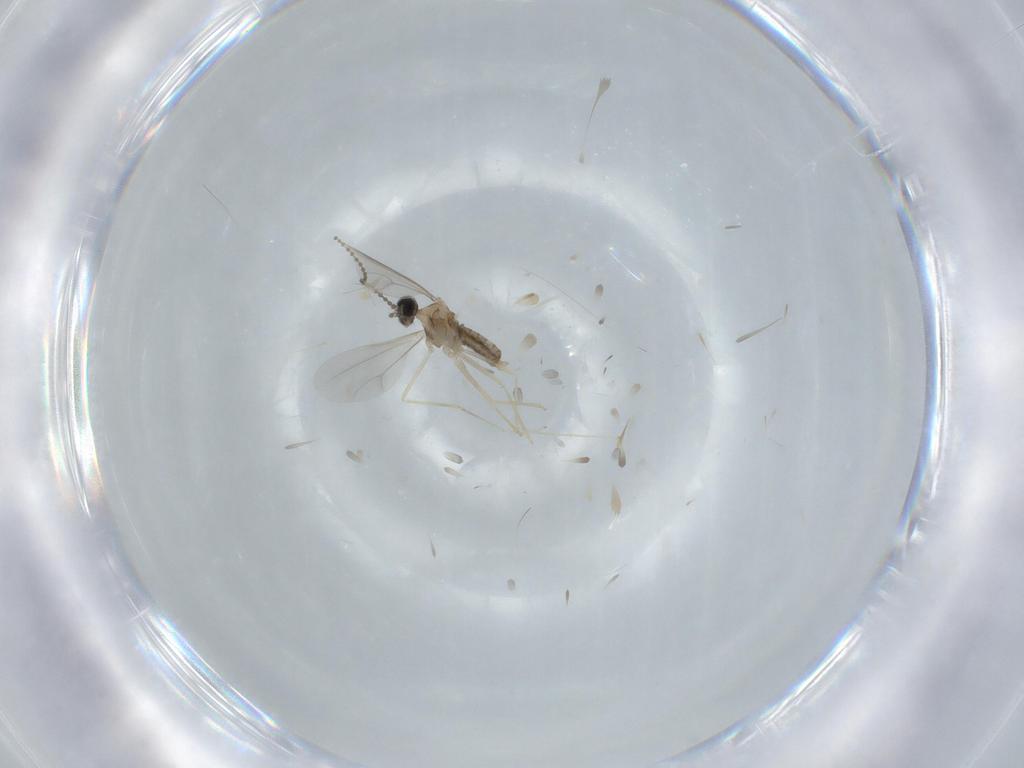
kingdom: Animalia
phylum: Arthropoda
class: Insecta
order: Diptera
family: Cecidomyiidae
